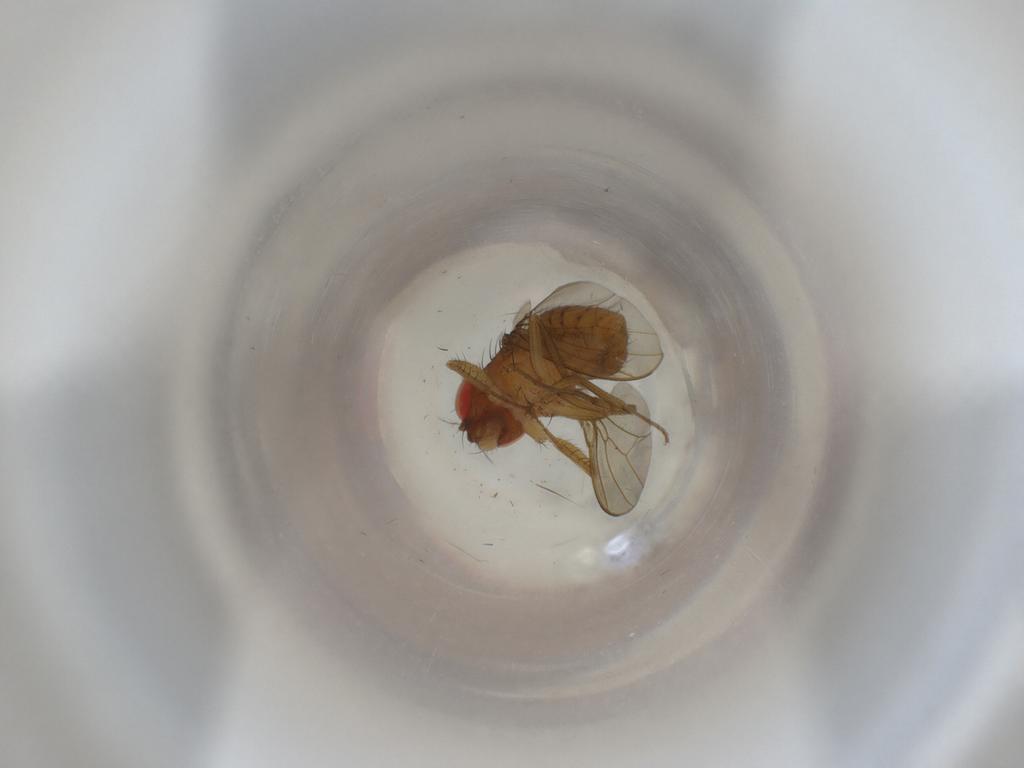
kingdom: Animalia
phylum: Arthropoda
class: Insecta
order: Diptera
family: Drosophilidae
